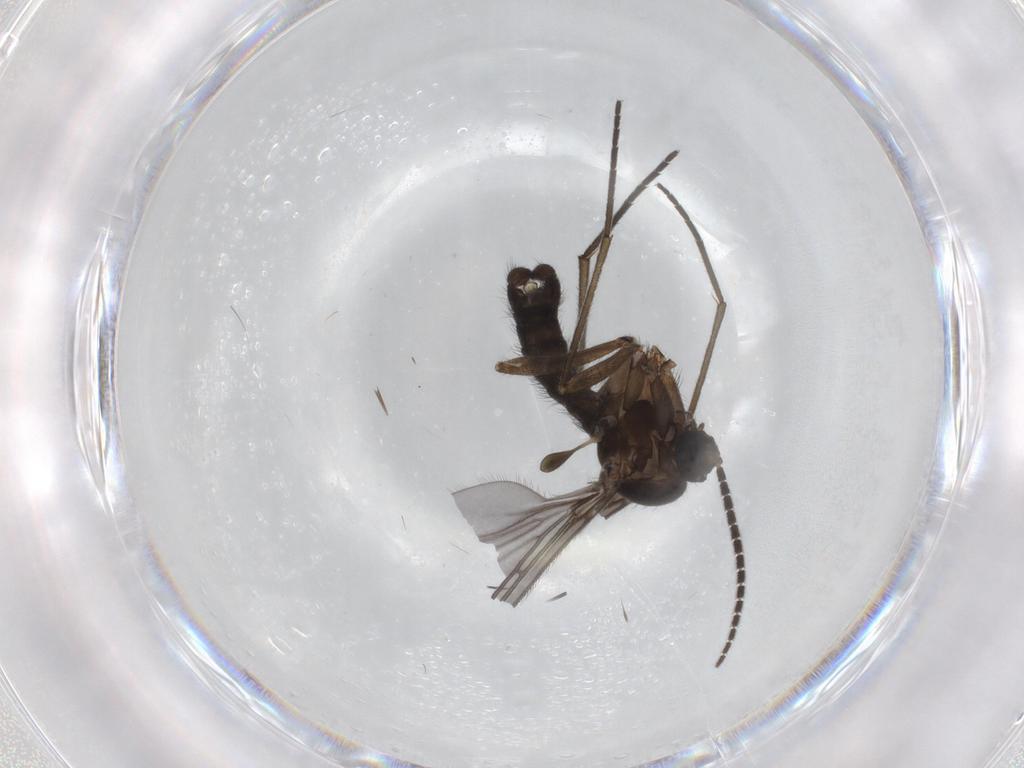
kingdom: Animalia
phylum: Arthropoda
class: Insecta
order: Diptera
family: Sciaridae
